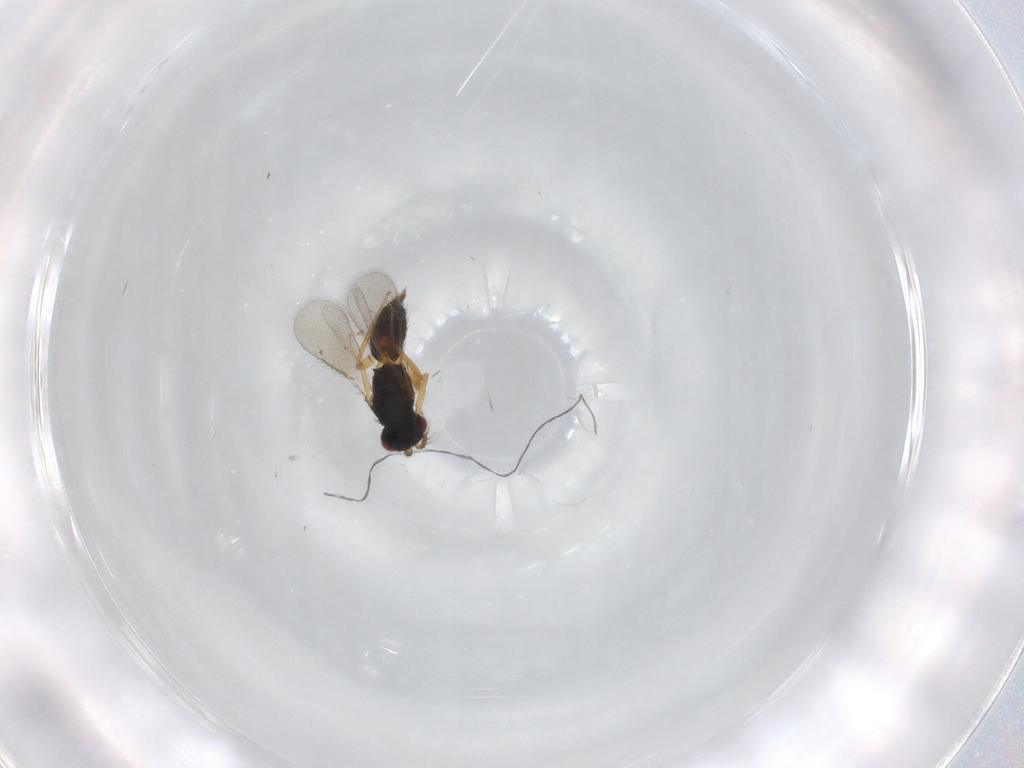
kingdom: Animalia
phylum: Arthropoda
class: Insecta
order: Hymenoptera
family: Eulophidae
